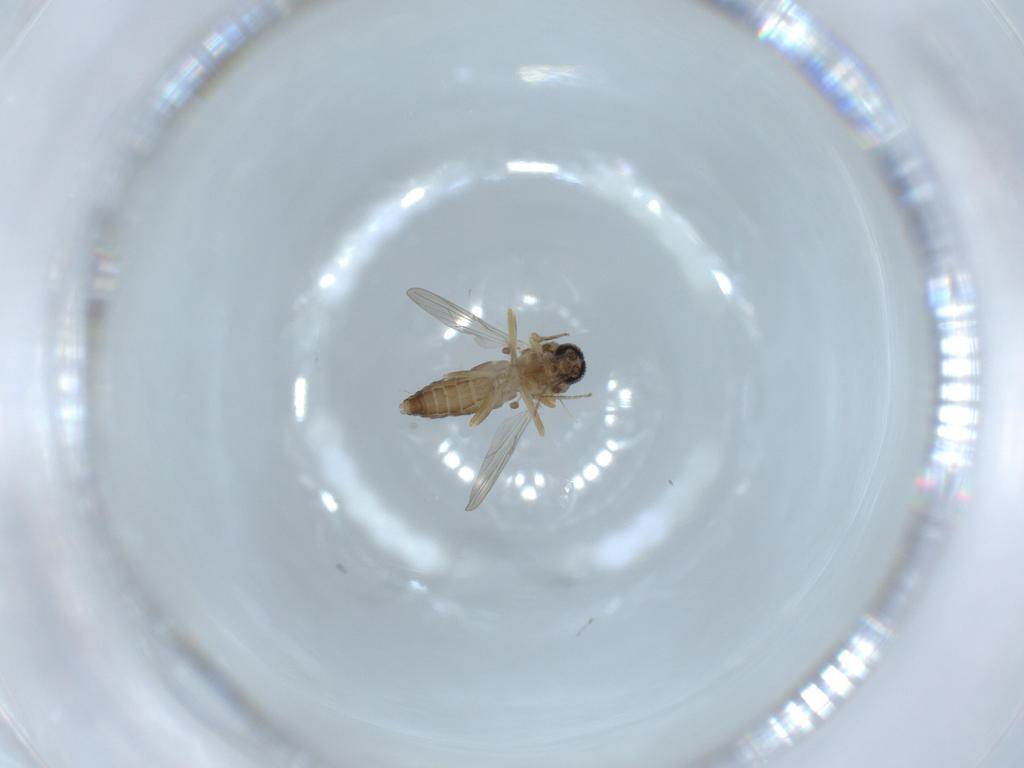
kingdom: Animalia
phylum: Arthropoda
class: Insecta
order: Diptera
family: Ceratopogonidae
